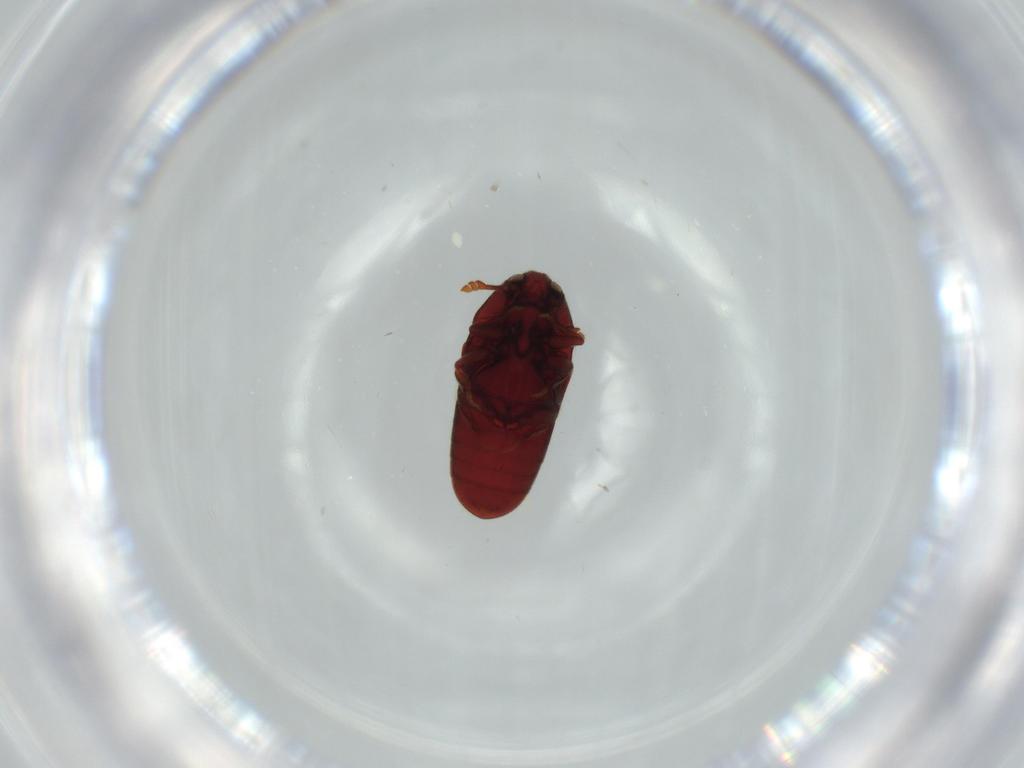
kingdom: Animalia
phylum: Arthropoda
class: Insecta
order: Coleoptera
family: Throscidae
